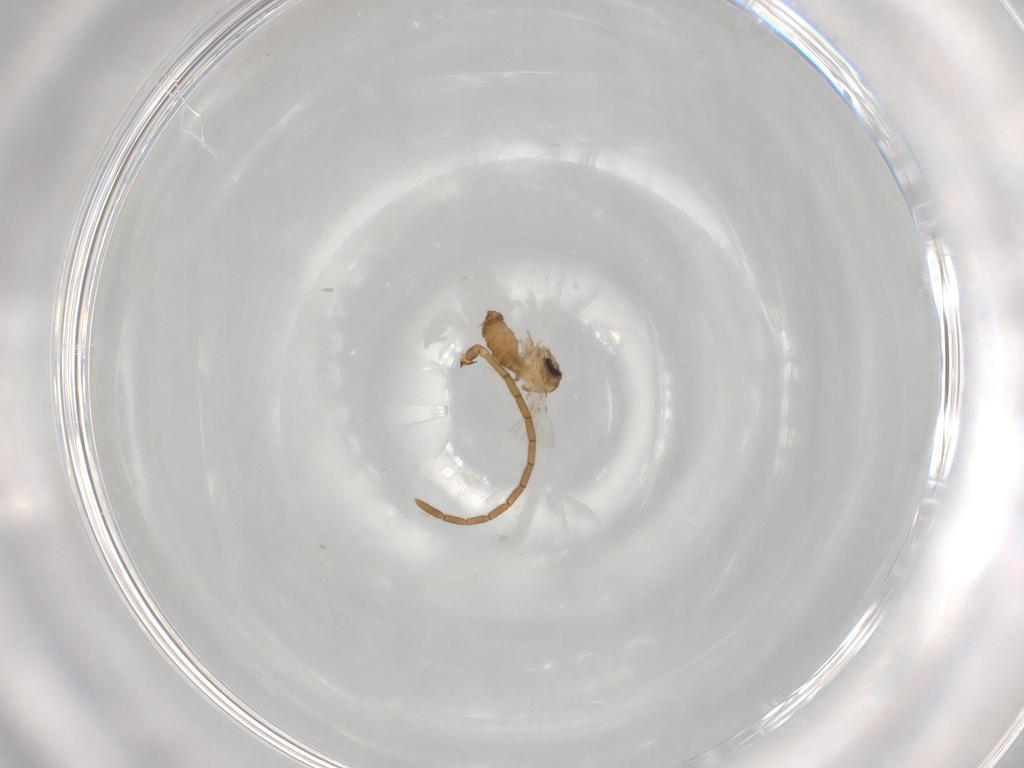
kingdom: Animalia
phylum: Arthropoda
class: Insecta
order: Diptera
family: Psychodidae
